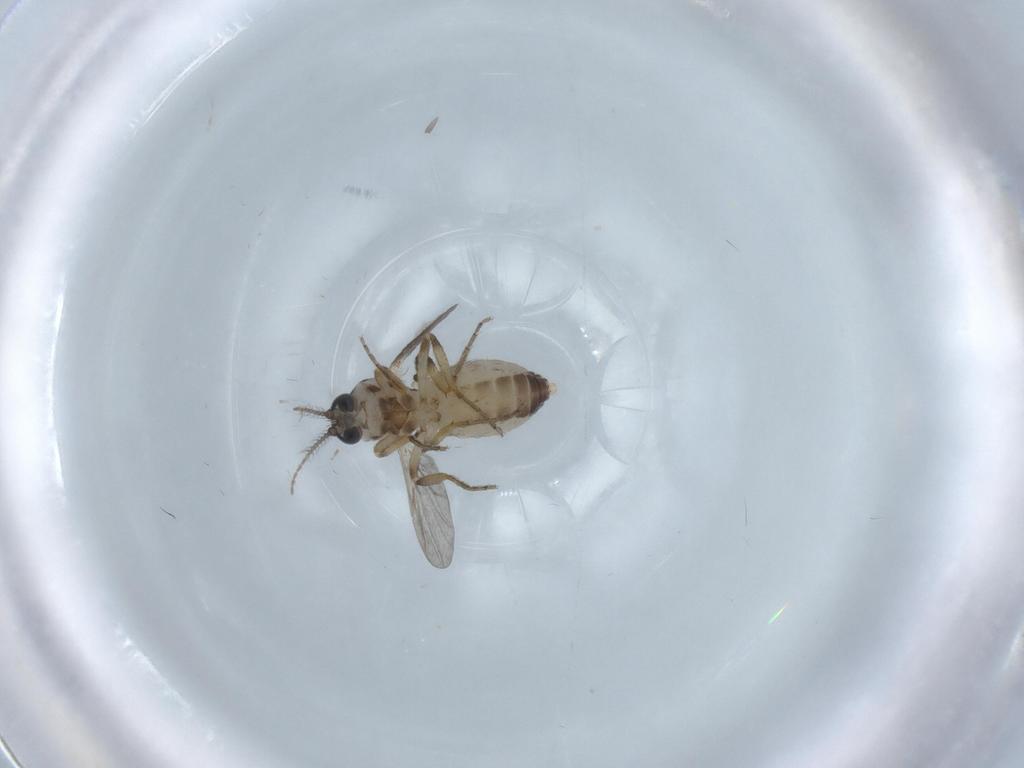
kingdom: Animalia
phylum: Arthropoda
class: Insecta
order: Diptera
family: Ceratopogonidae
